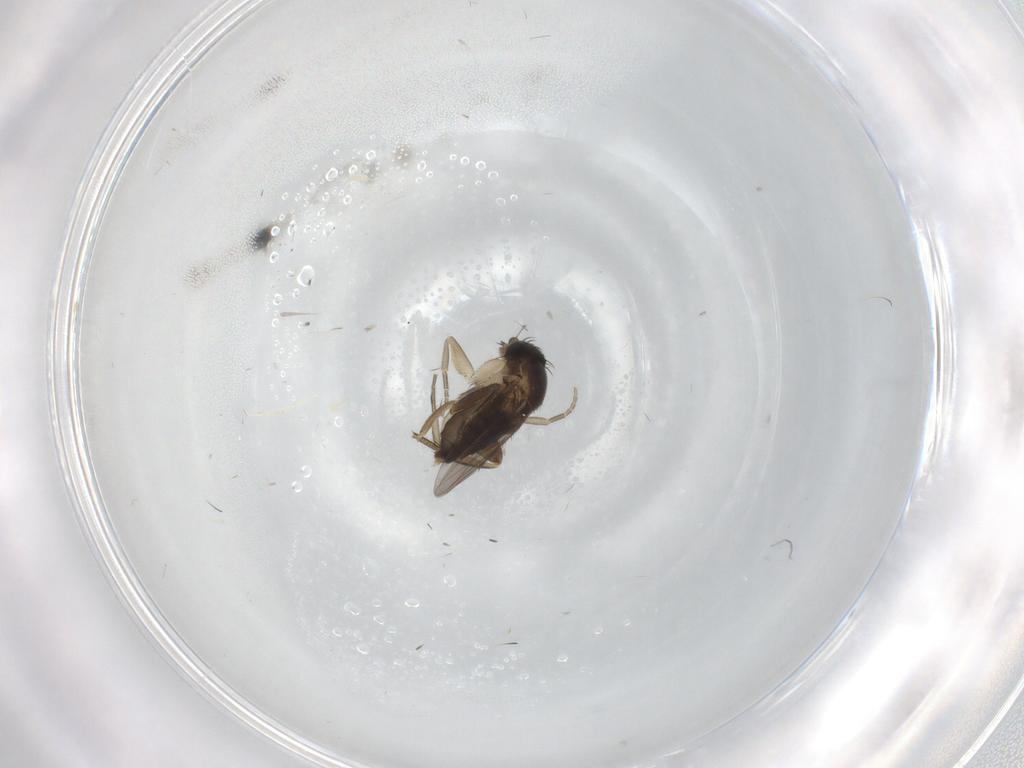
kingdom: Animalia
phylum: Arthropoda
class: Insecta
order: Diptera
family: Phoridae
